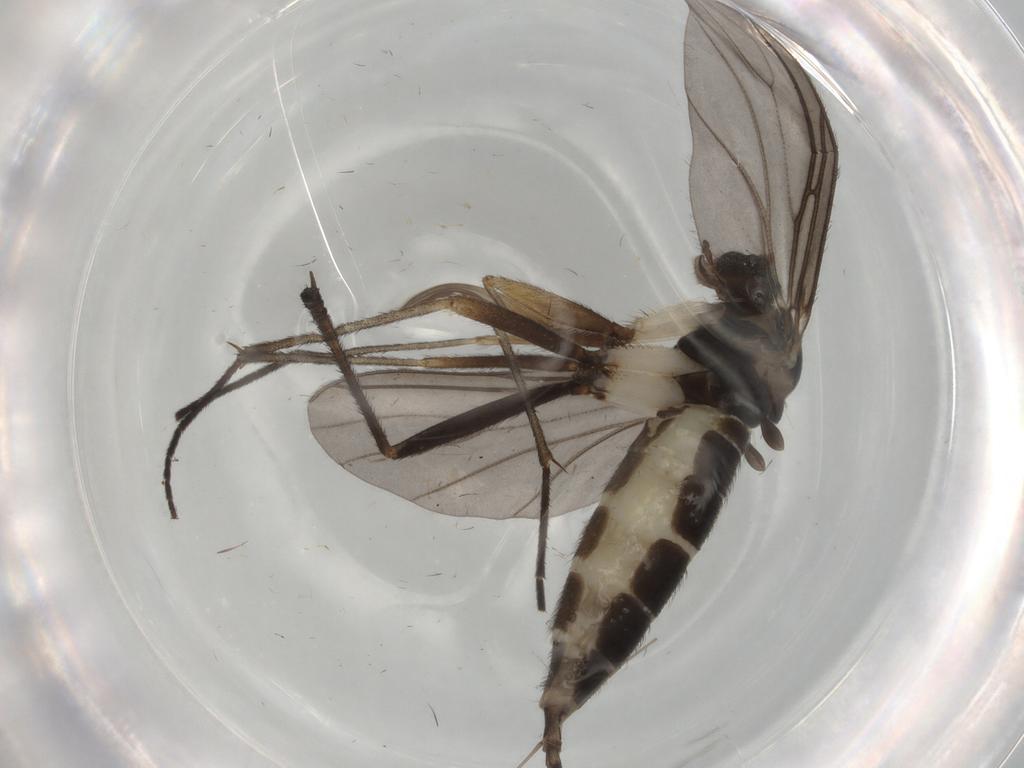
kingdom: Animalia
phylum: Arthropoda
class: Insecta
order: Diptera
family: Sciaridae
